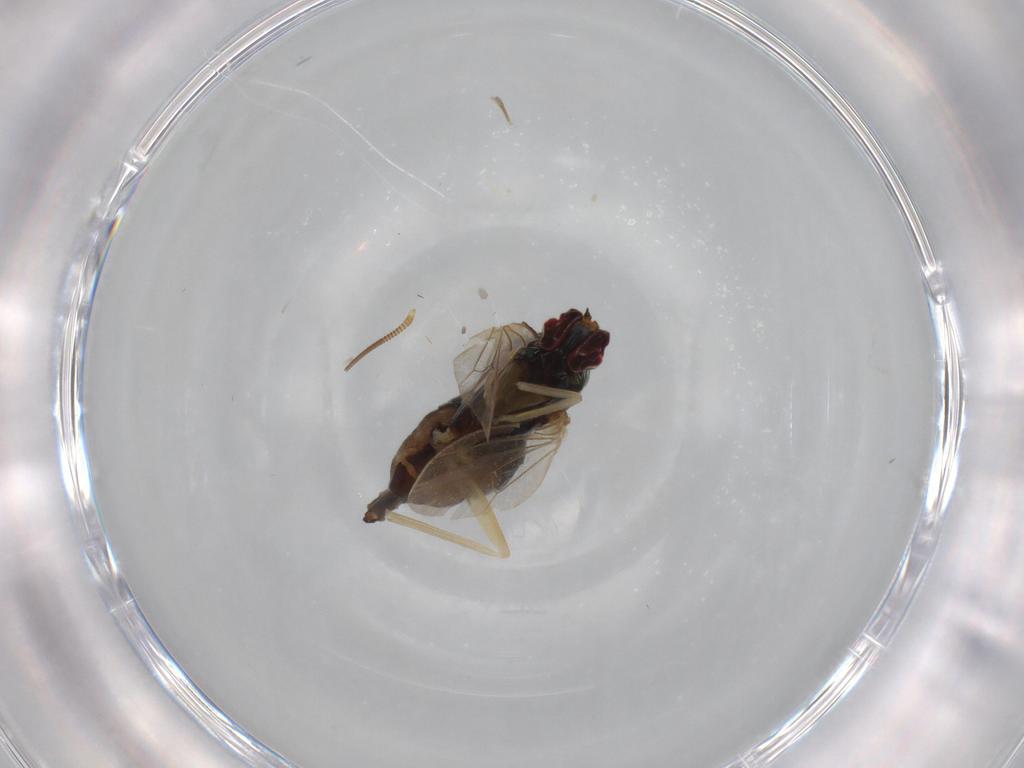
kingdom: Animalia
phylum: Arthropoda
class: Insecta
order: Diptera
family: Dolichopodidae
